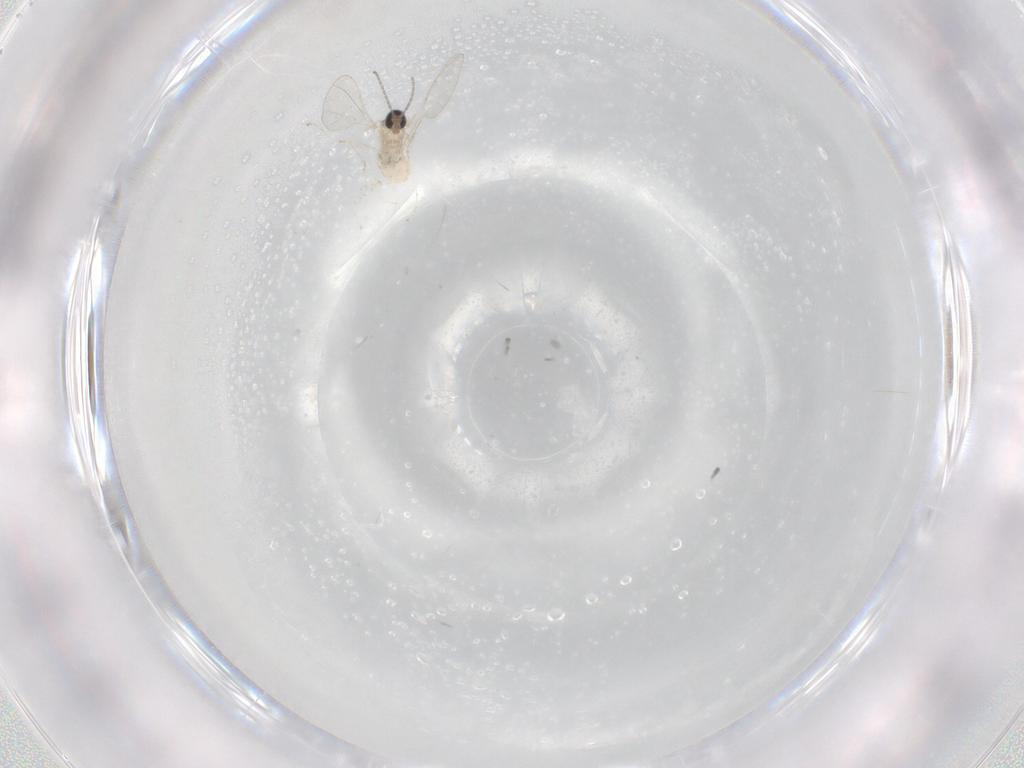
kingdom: Animalia
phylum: Arthropoda
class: Insecta
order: Diptera
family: Cecidomyiidae
